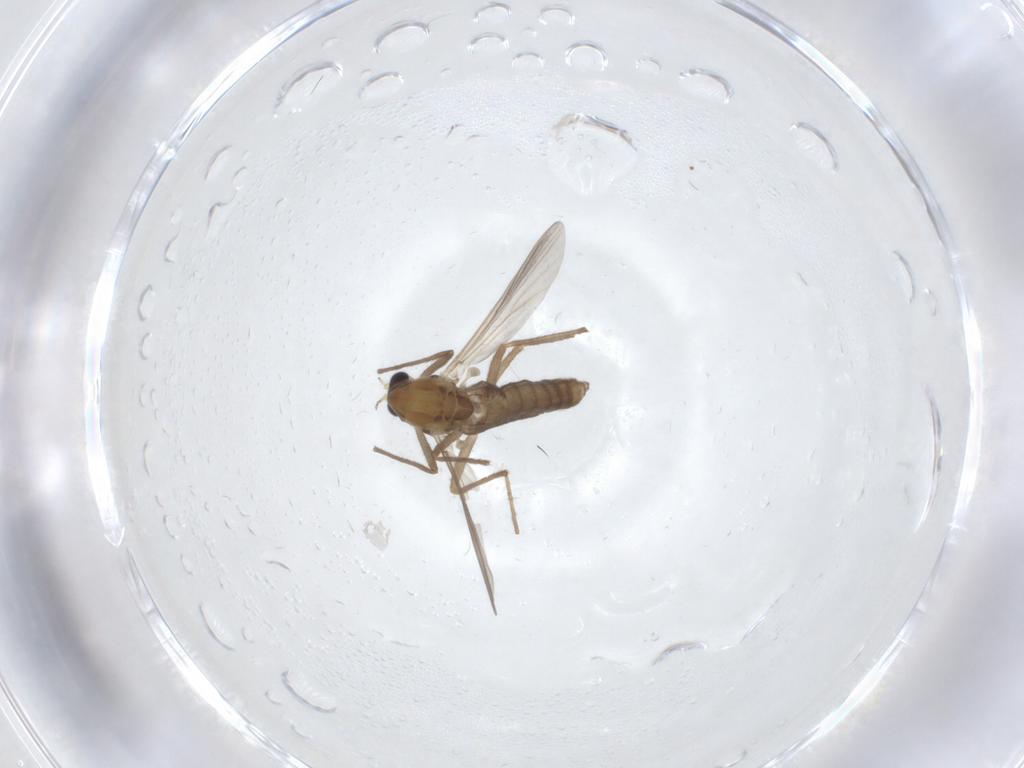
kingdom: Animalia
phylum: Arthropoda
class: Insecta
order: Diptera
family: Chironomidae
